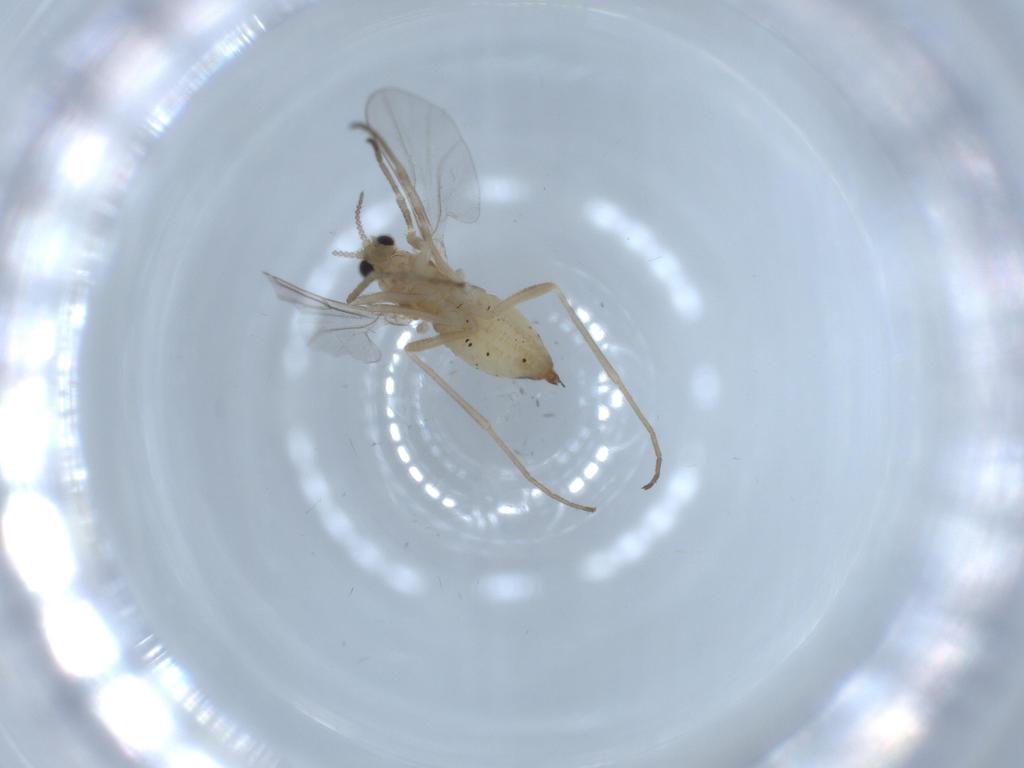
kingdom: Animalia
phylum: Arthropoda
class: Insecta
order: Diptera
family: Cecidomyiidae
